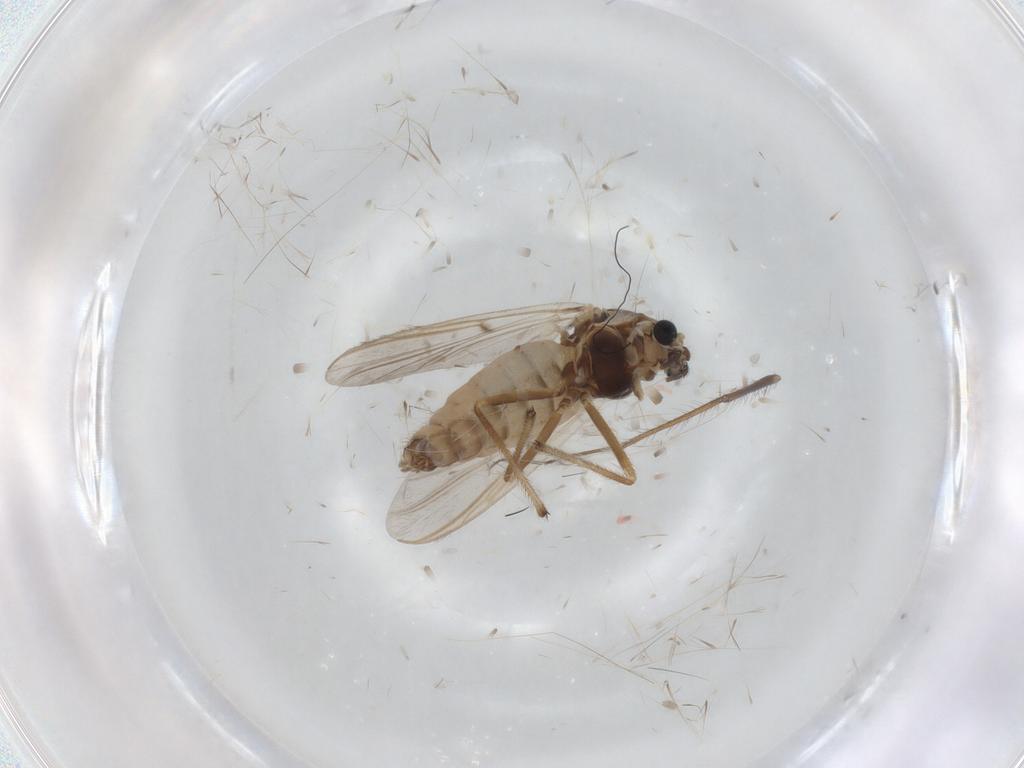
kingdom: Animalia
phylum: Arthropoda
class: Insecta
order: Diptera
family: Chironomidae
